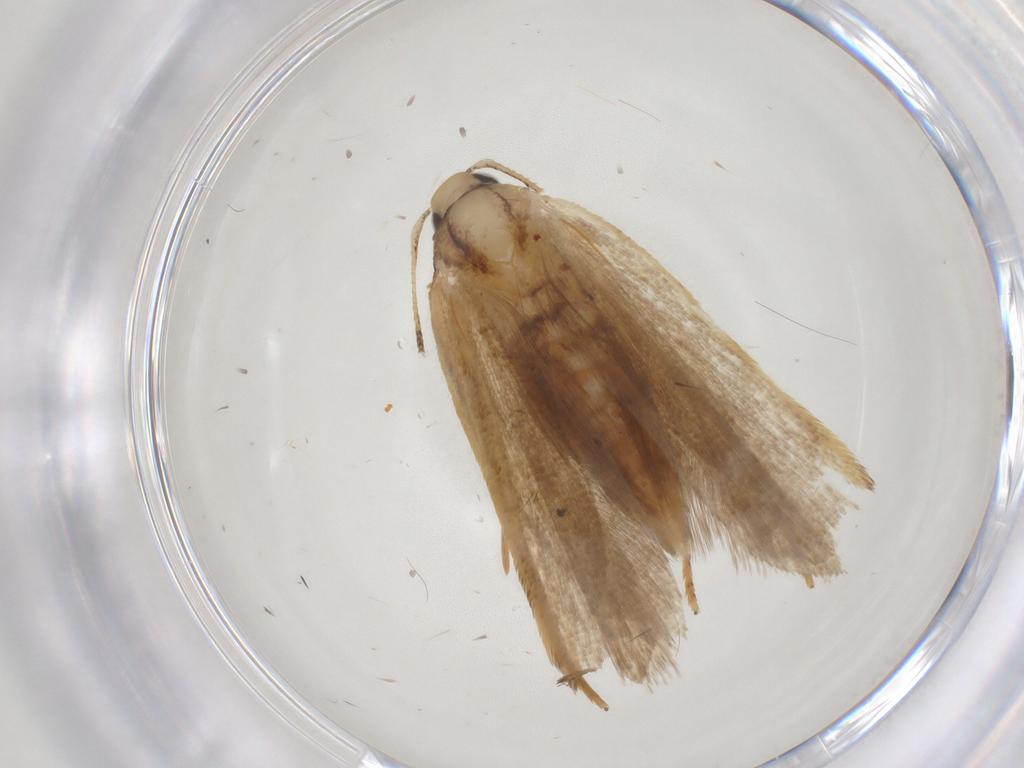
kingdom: Animalia
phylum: Arthropoda
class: Insecta
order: Lepidoptera
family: Gelechiidae
